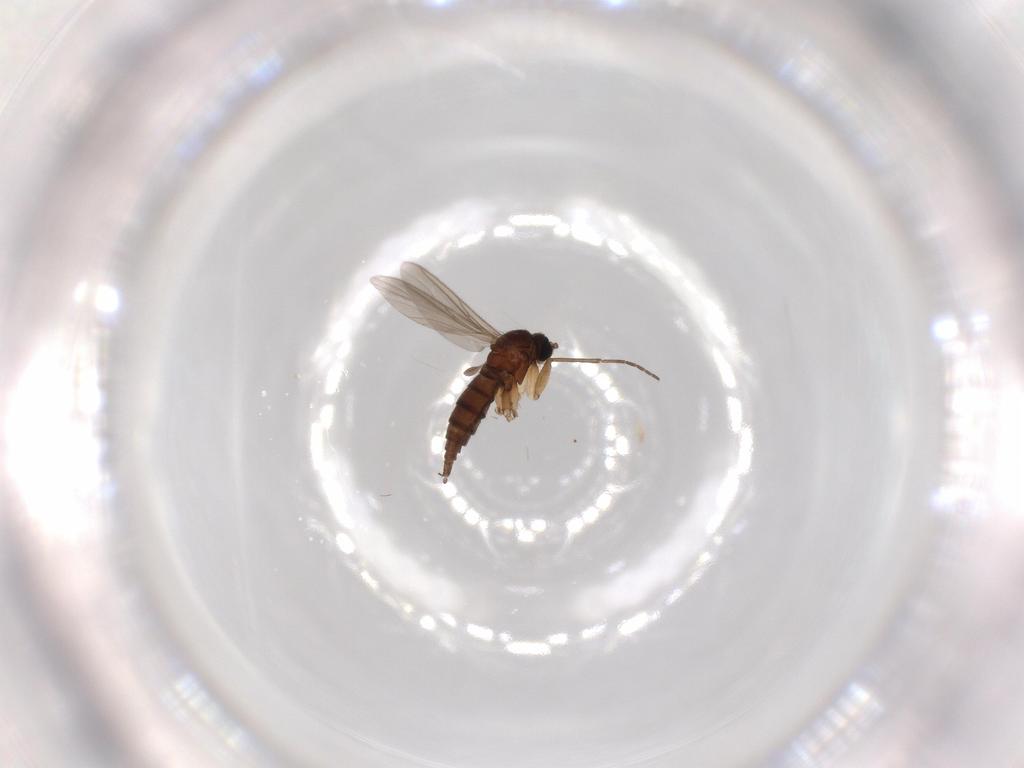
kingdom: Animalia
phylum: Arthropoda
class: Insecta
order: Diptera
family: Sciaridae
